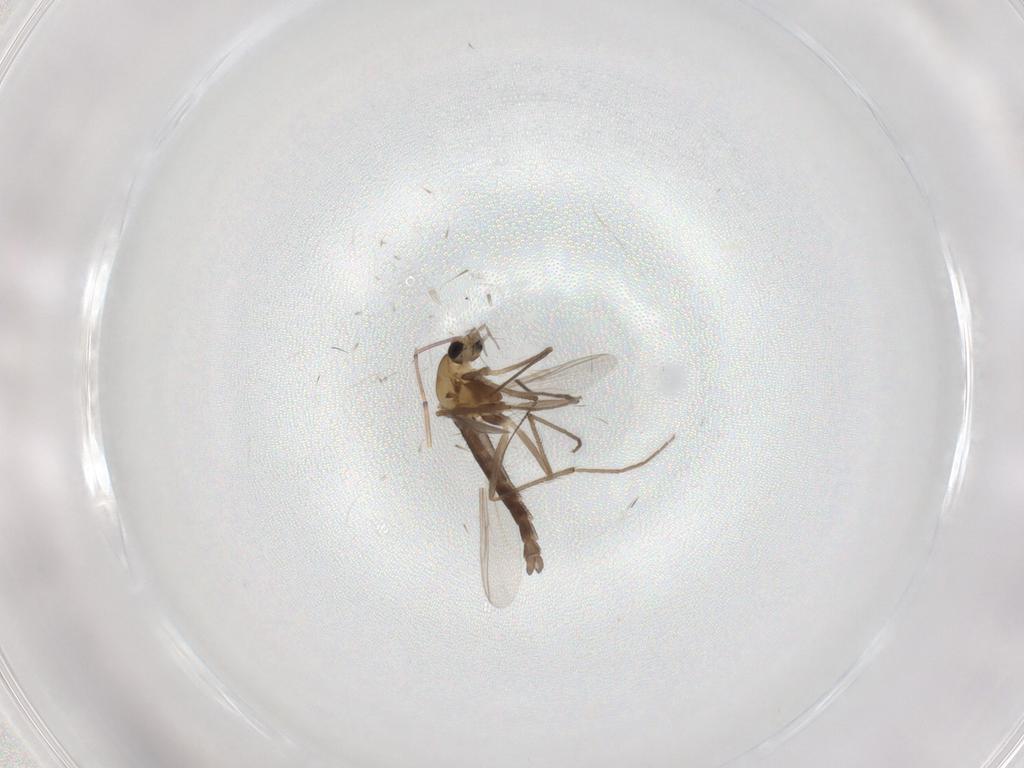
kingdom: Animalia
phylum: Arthropoda
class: Insecta
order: Diptera
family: Chironomidae
